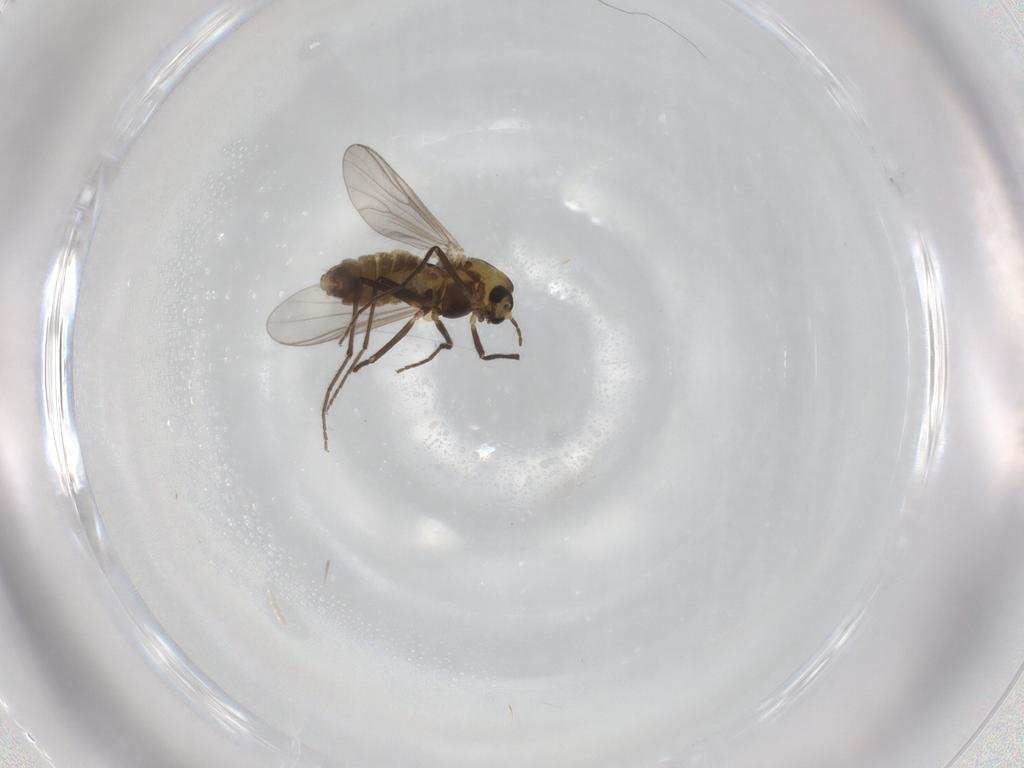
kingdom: Animalia
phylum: Arthropoda
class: Insecta
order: Diptera
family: Chironomidae
